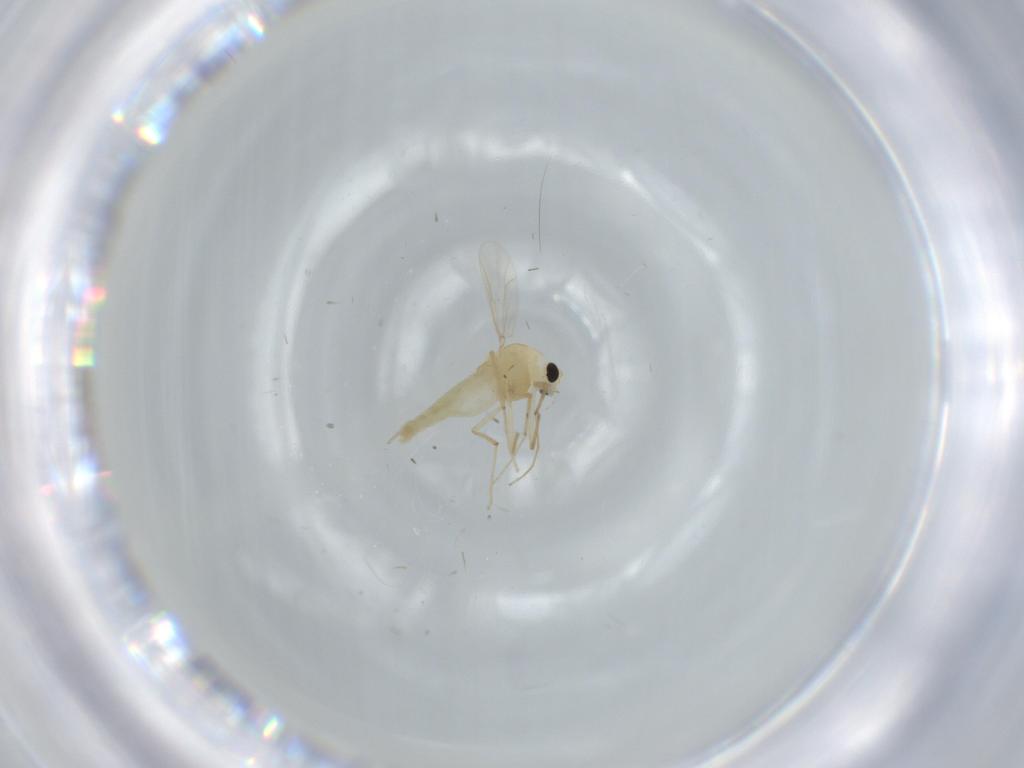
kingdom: Animalia
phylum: Arthropoda
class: Insecta
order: Diptera
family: Chironomidae
